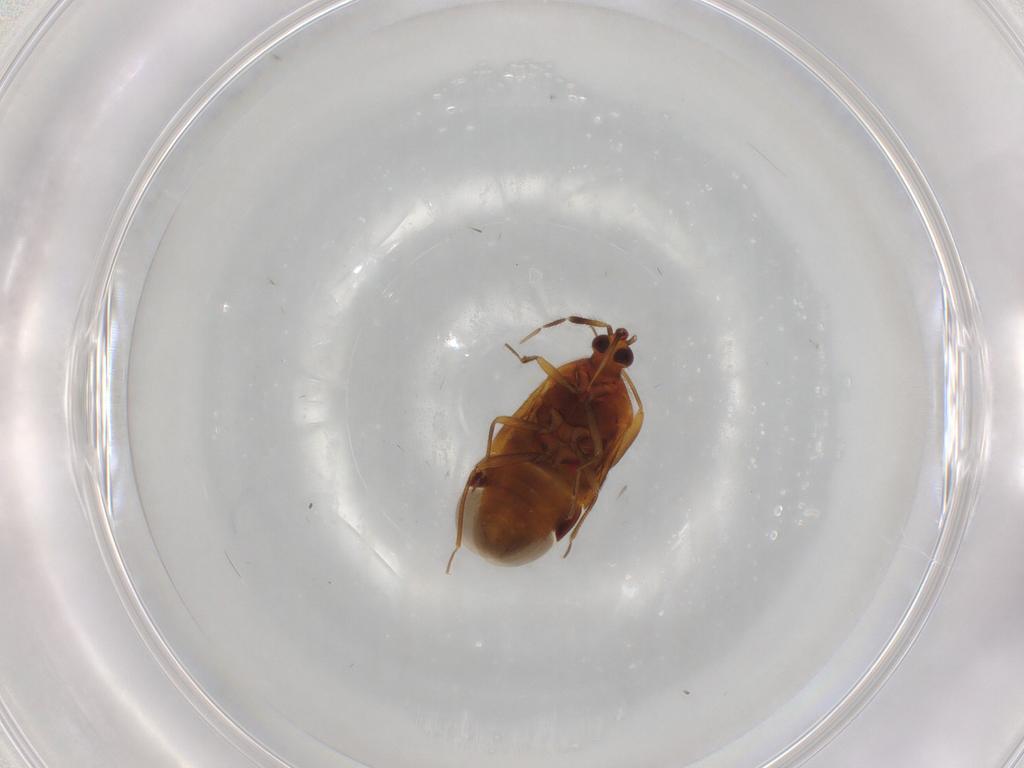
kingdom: Animalia
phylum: Arthropoda
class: Insecta
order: Hemiptera
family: Anthocoridae
